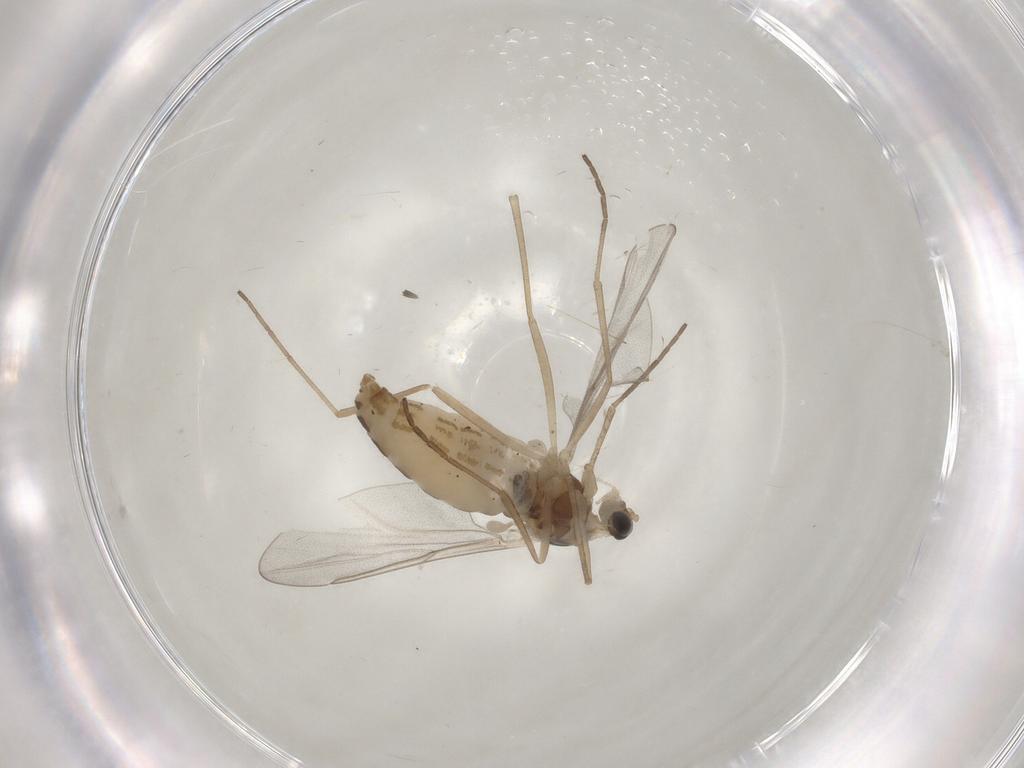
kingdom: Animalia
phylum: Arthropoda
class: Insecta
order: Diptera
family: Cecidomyiidae
